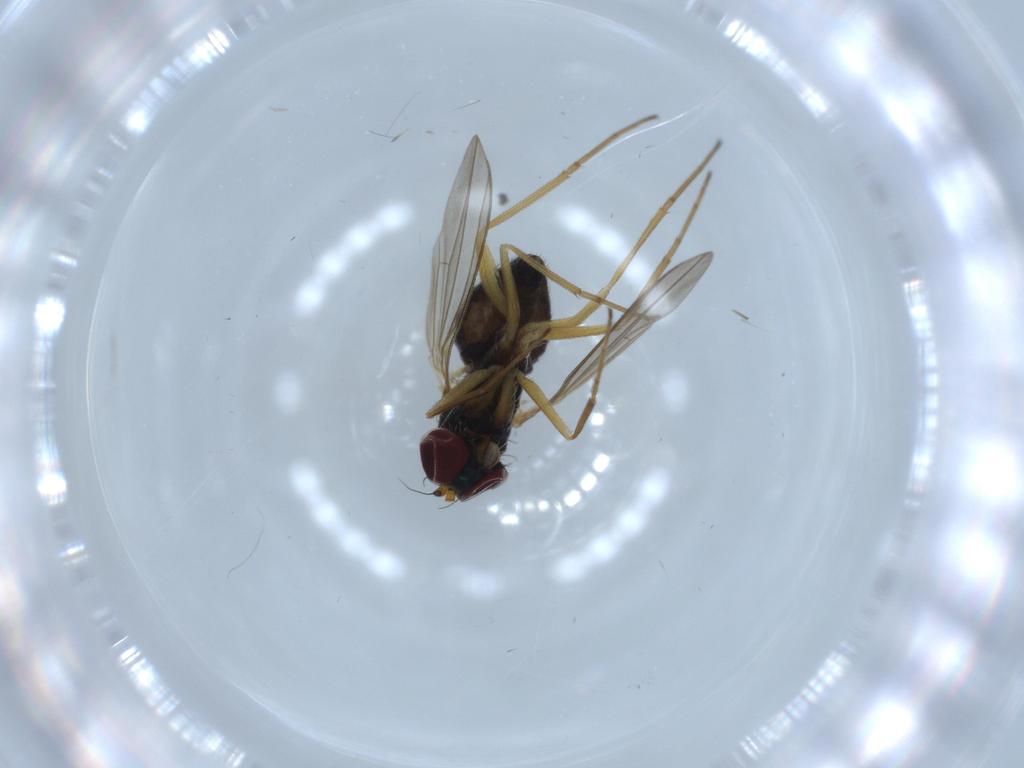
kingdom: Animalia
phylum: Arthropoda
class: Insecta
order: Diptera
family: Dolichopodidae
